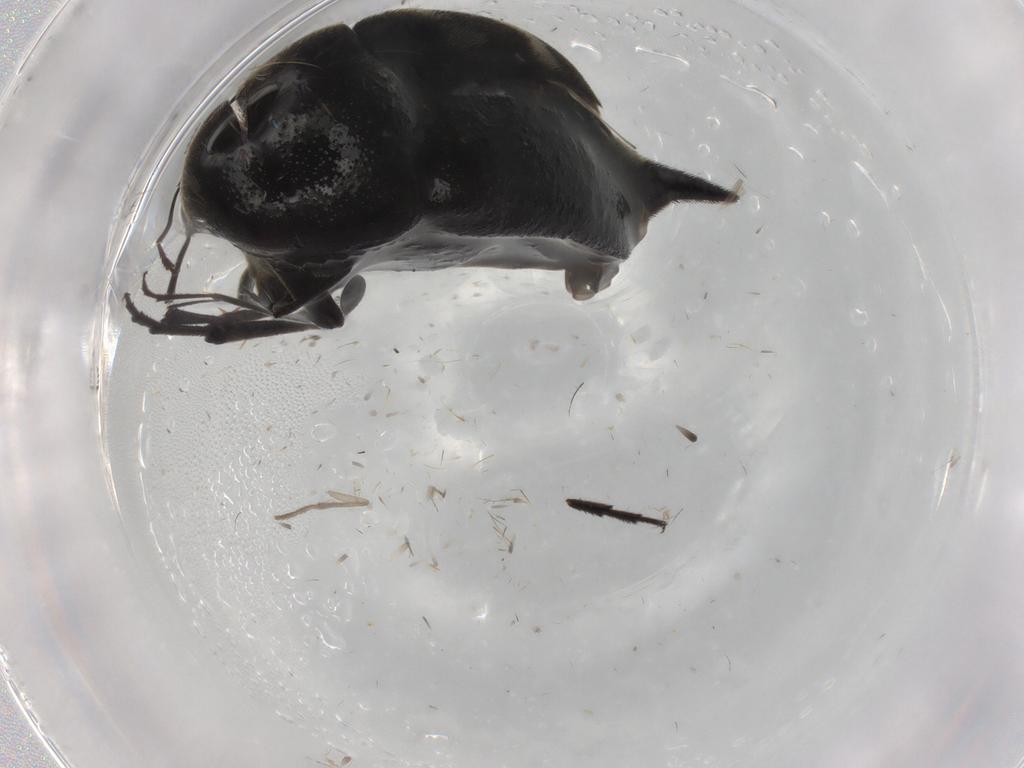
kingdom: Animalia
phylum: Arthropoda
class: Insecta
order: Coleoptera
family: Mordellidae
